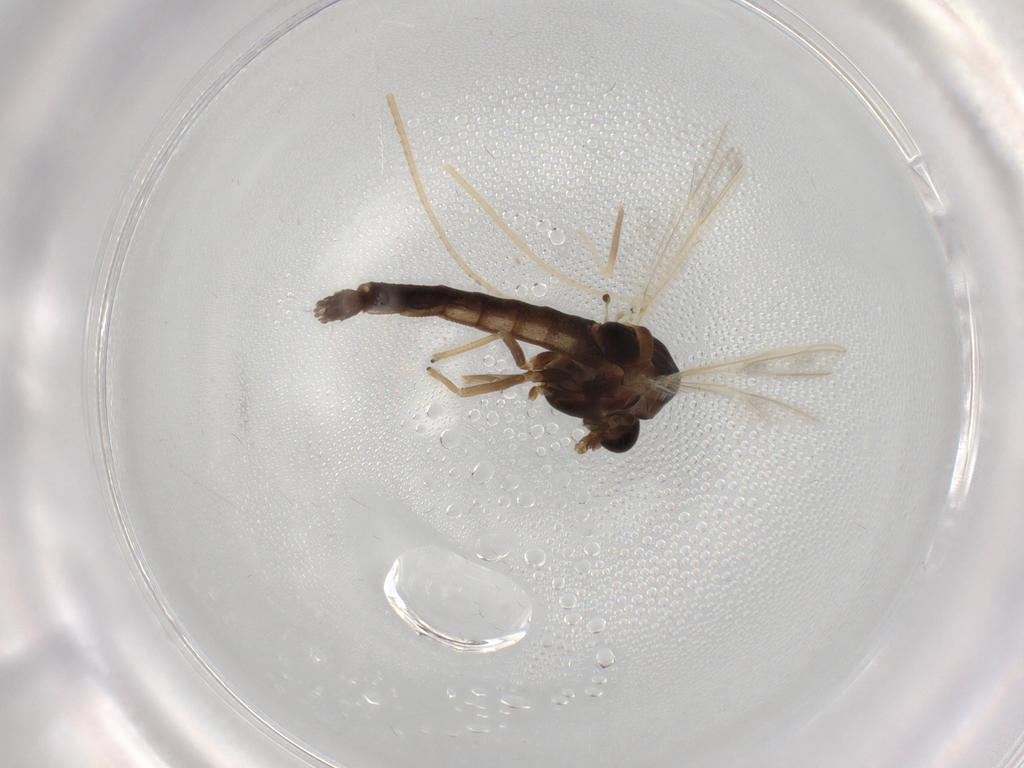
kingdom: Animalia
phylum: Arthropoda
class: Insecta
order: Diptera
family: Chironomidae
